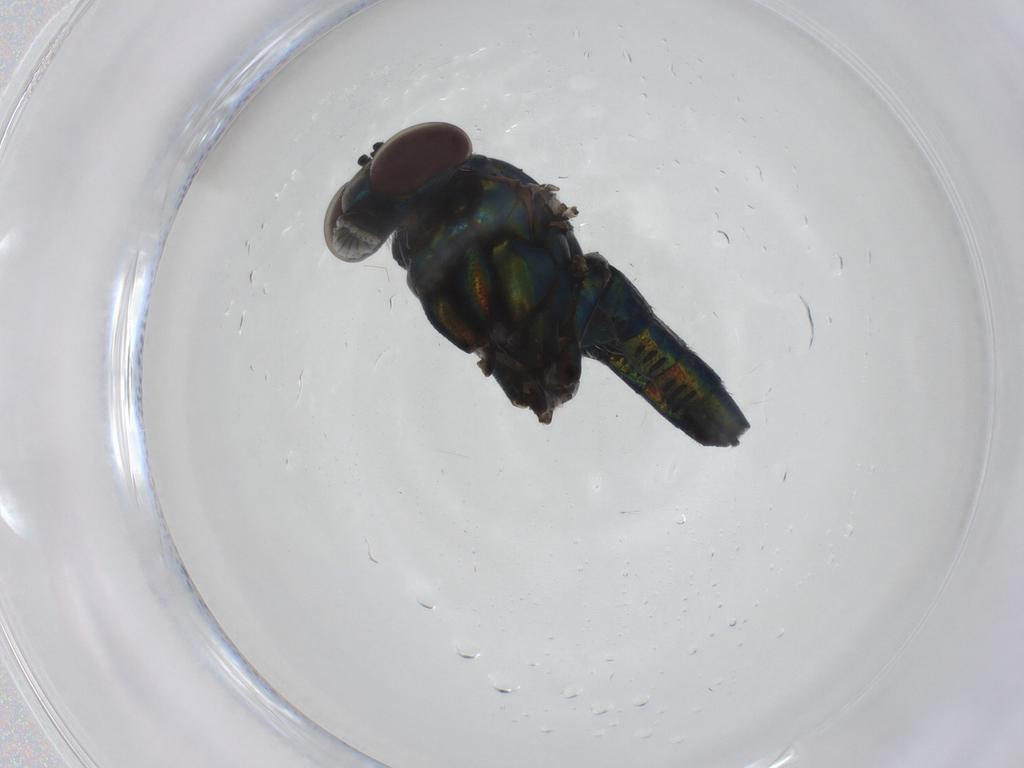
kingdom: Animalia
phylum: Arthropoda
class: Insecta
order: Diptera
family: Dolichopodidae
